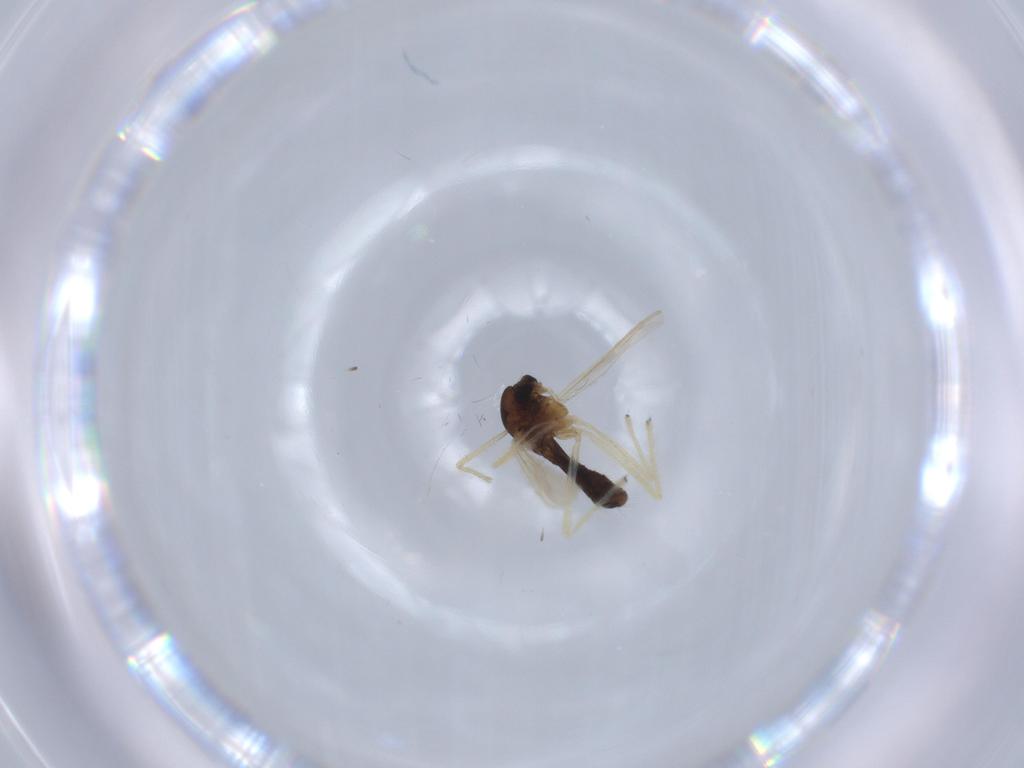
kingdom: Animalia
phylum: Arthropoda
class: Insecta
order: Diptera
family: Chironomidae
